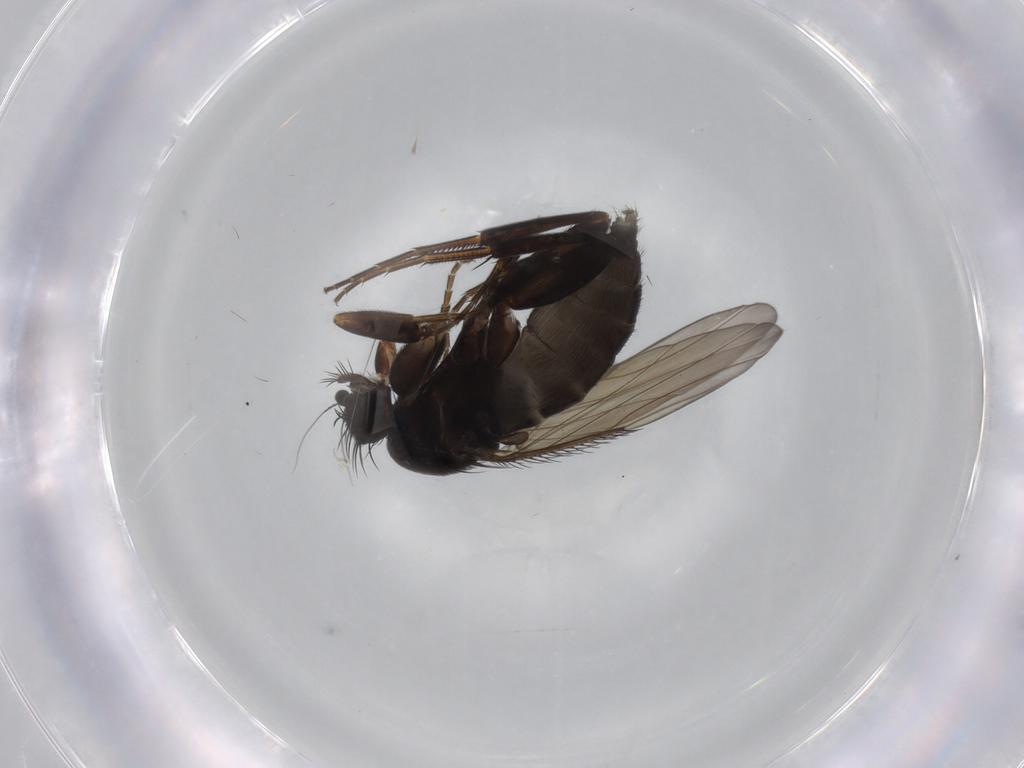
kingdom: Animalia
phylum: Arthropoda
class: Insecta
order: Diptera
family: Phoridae
